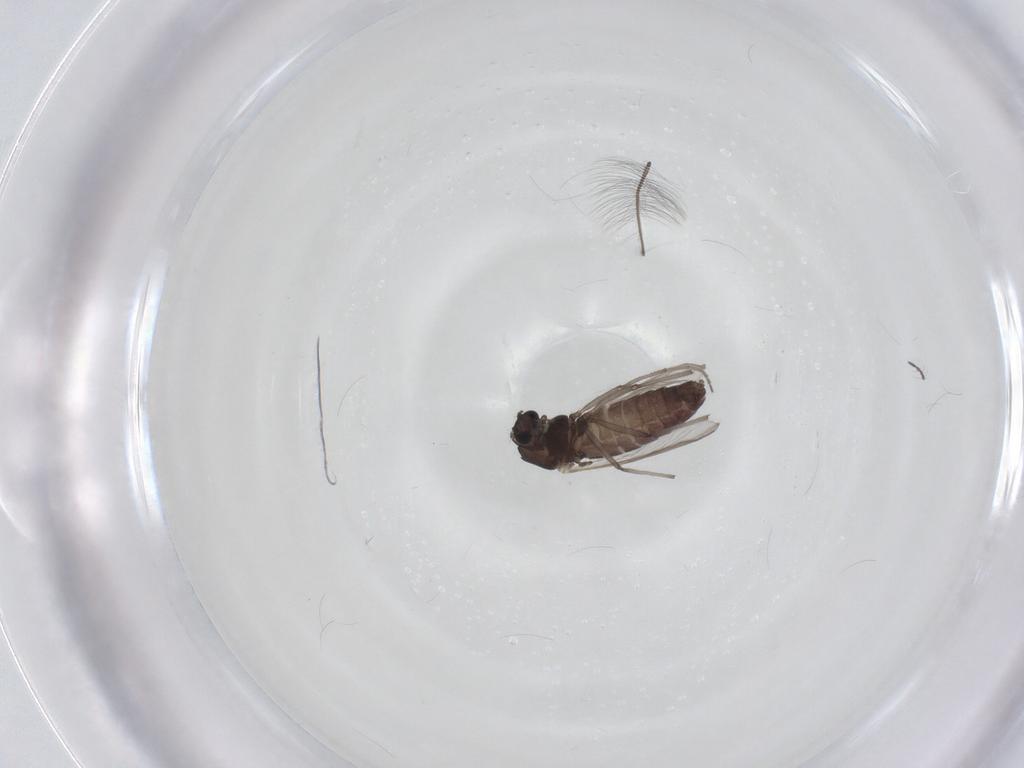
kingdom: Animalia
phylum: Arthropoda
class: Insecta
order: Diptera
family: Chironomidae
